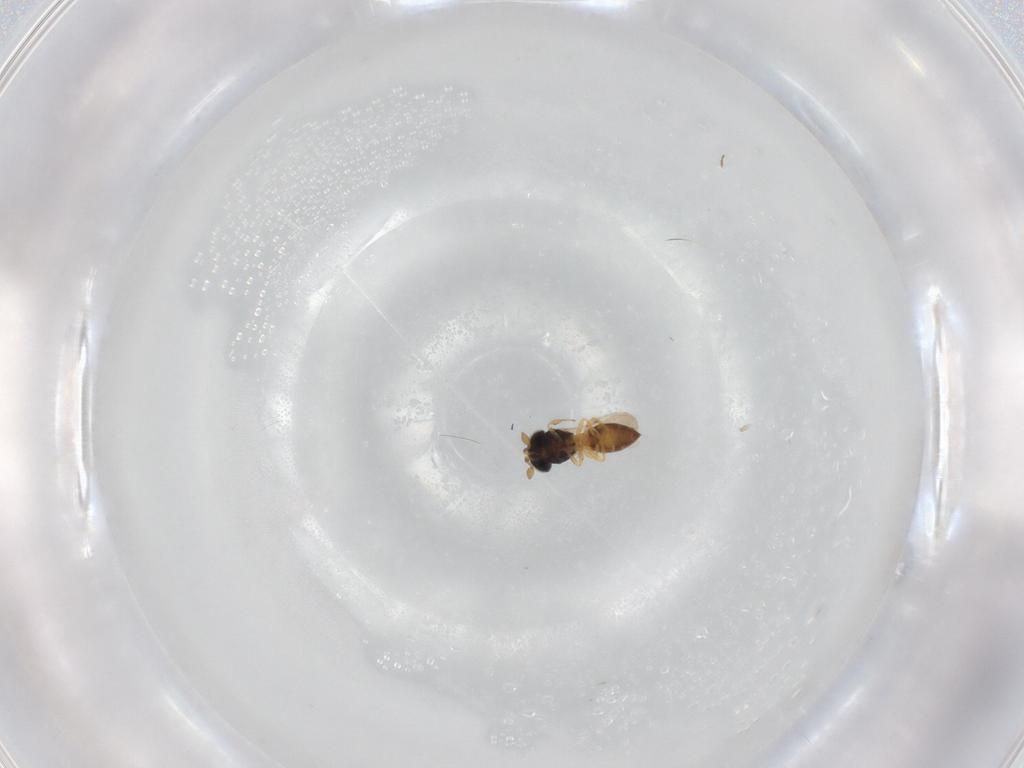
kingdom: Animalia
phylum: Arthropoda
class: Insecta
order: Hymenoptera
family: Scelionidae
